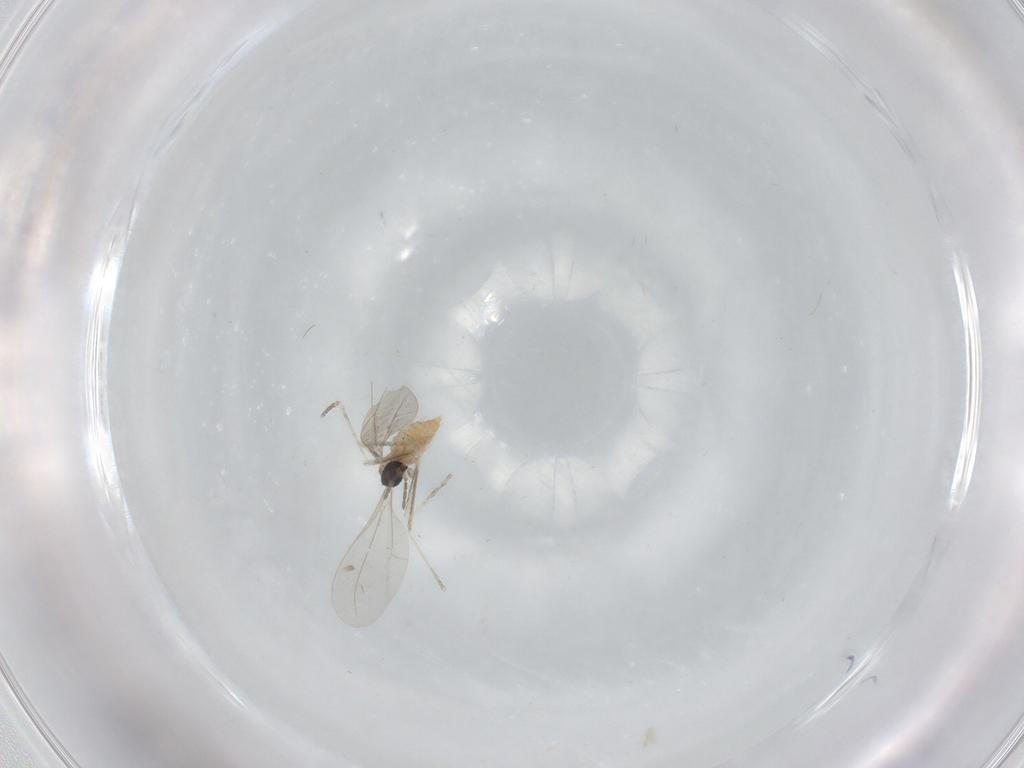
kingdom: Animalia
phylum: Arthropoda
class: Insecta
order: Diptera
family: Cecidomyiidae
